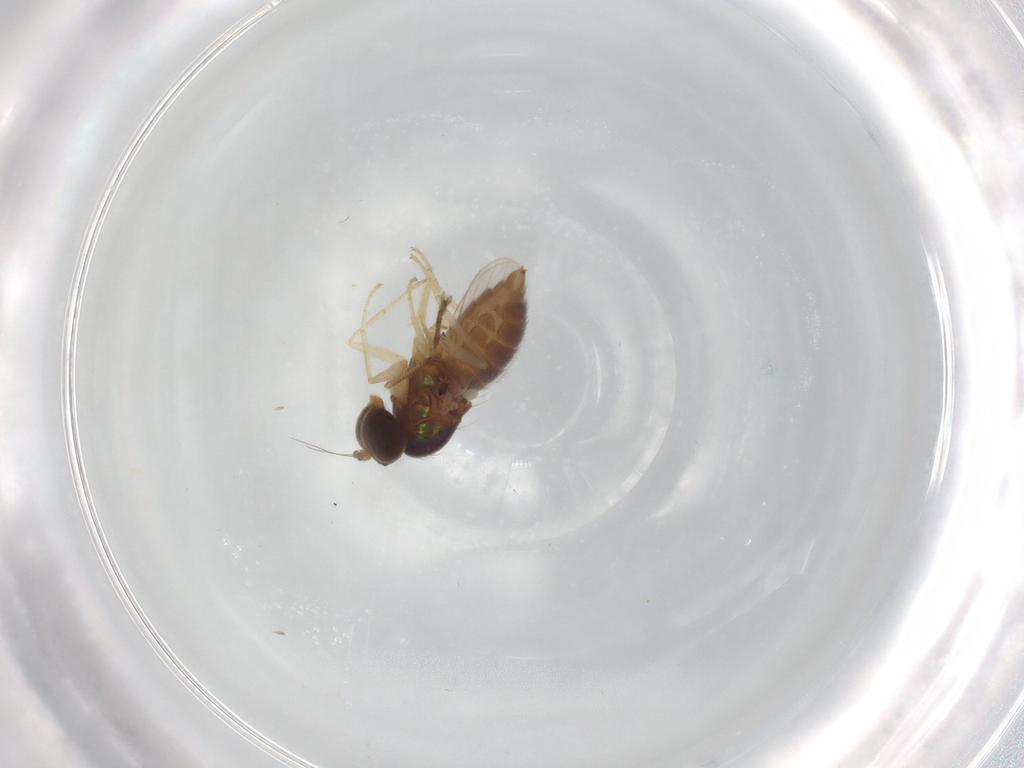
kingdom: Animalia
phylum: Arthropoda
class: Insecta
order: Diptera
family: Dolichopodidae
